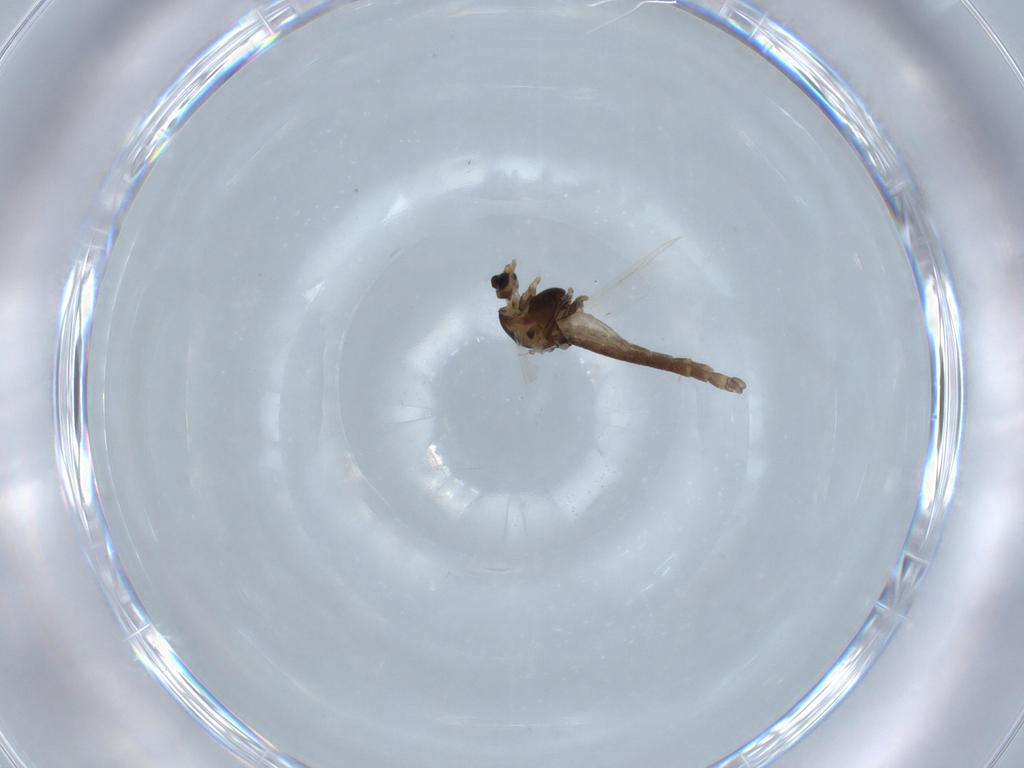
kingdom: Animalia
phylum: Arthropoda
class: Insecta
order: Diptera
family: Chironomidae
